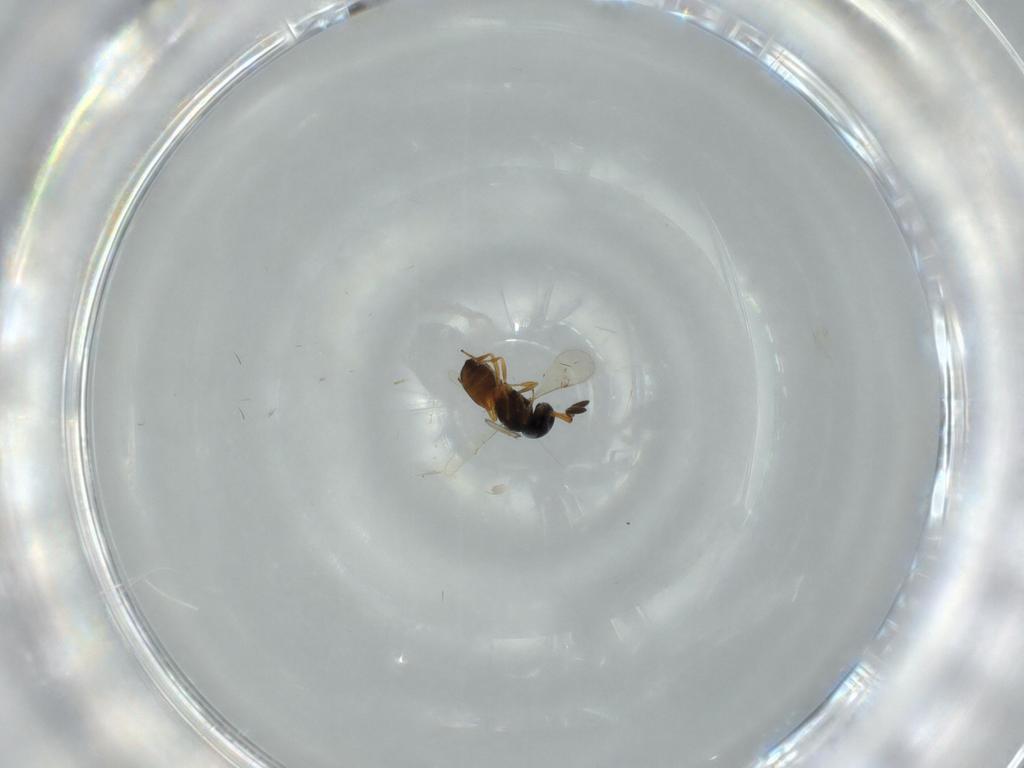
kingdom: Animalia
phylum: Arthropoda
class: Insecta
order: Hymenoptera
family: Scelionidae
